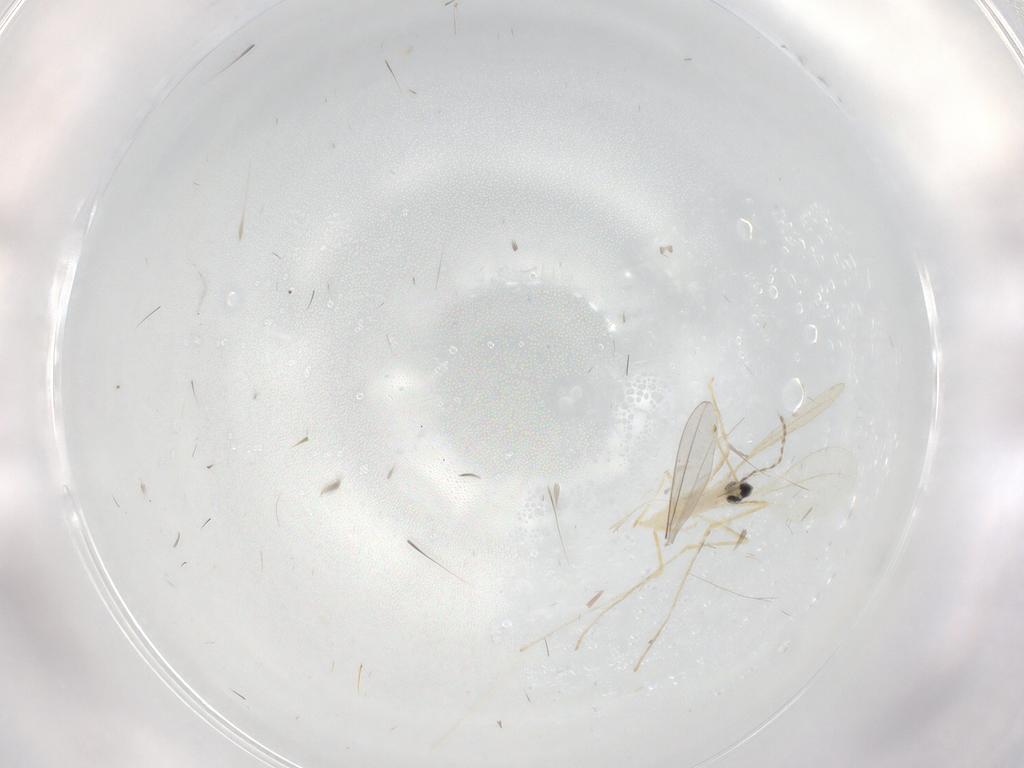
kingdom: Animalia
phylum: Arthropoda
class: Insecta
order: Diptera
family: Cecidomyiidae
